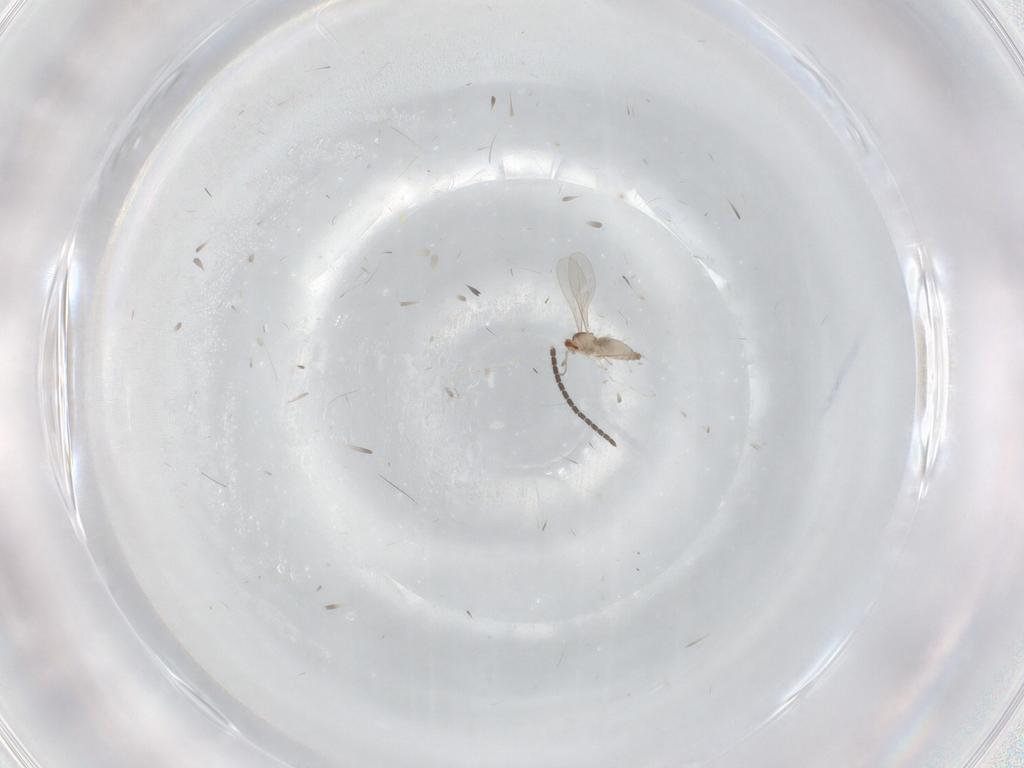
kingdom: Animalia
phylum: Arthropoda
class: Insecta
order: Diptera
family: Cecidomyiidae
